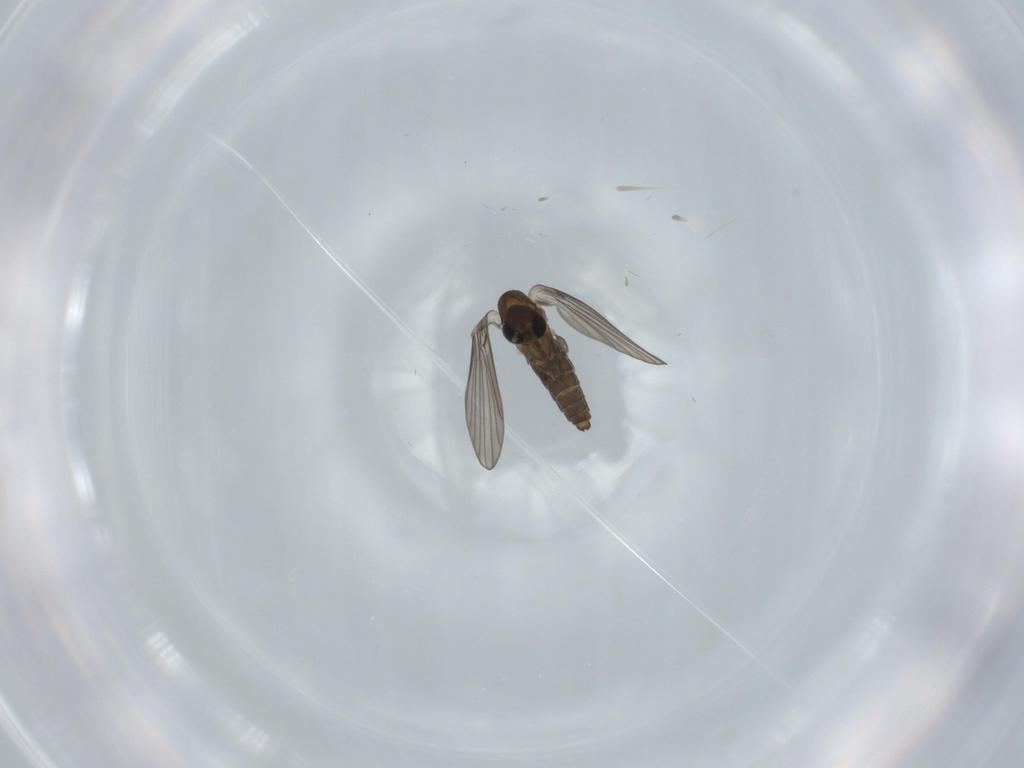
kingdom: Animalia
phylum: Arthropoda
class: Insecta
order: Diptera
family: Psychodidae
